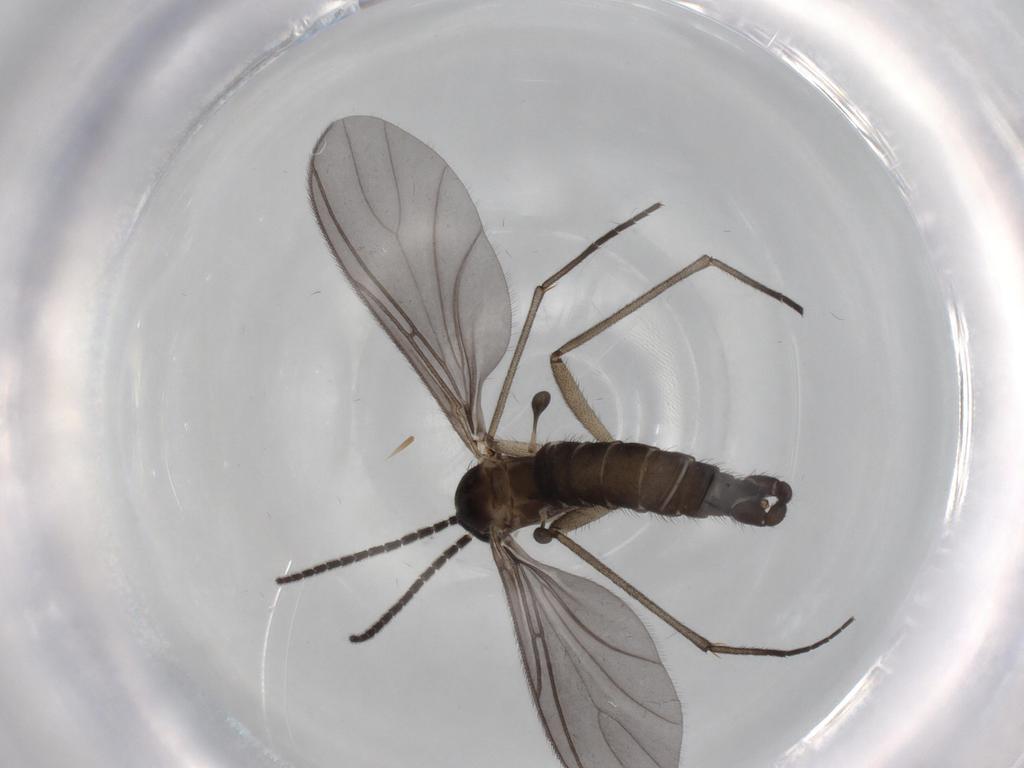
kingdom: Animalia
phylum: Arthropoda
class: Insecta
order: Diptera
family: Sciaridae
